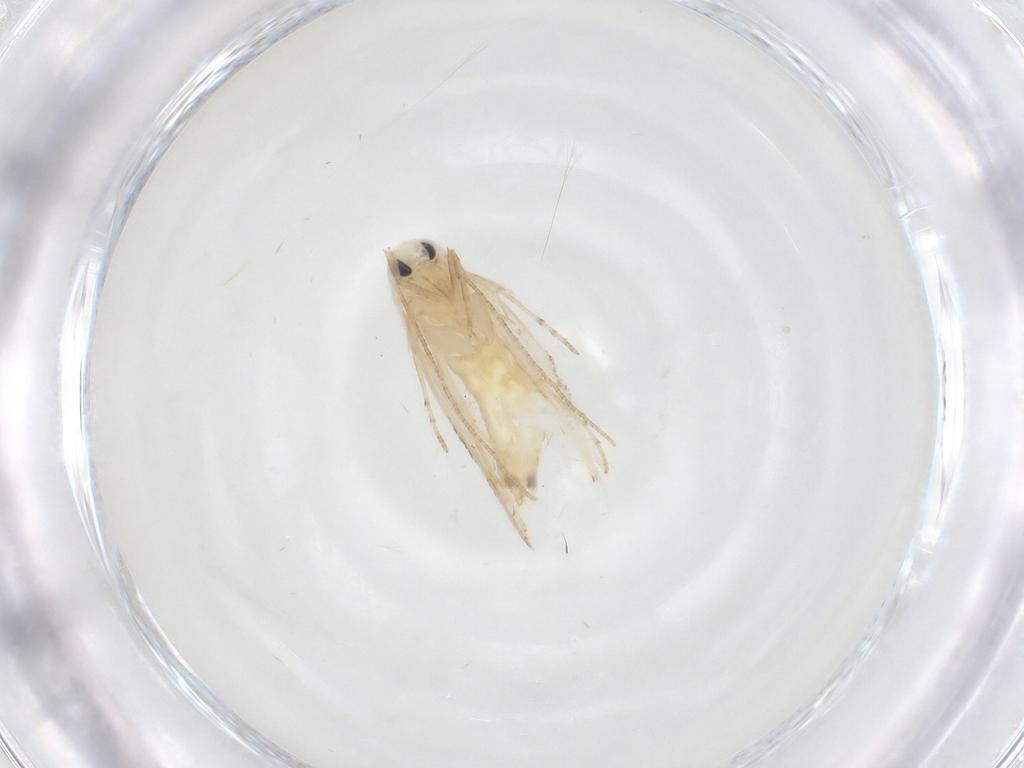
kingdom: Animalia
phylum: Arthropoda
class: Insecta
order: Lepidoptera
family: Lyonetiidae
